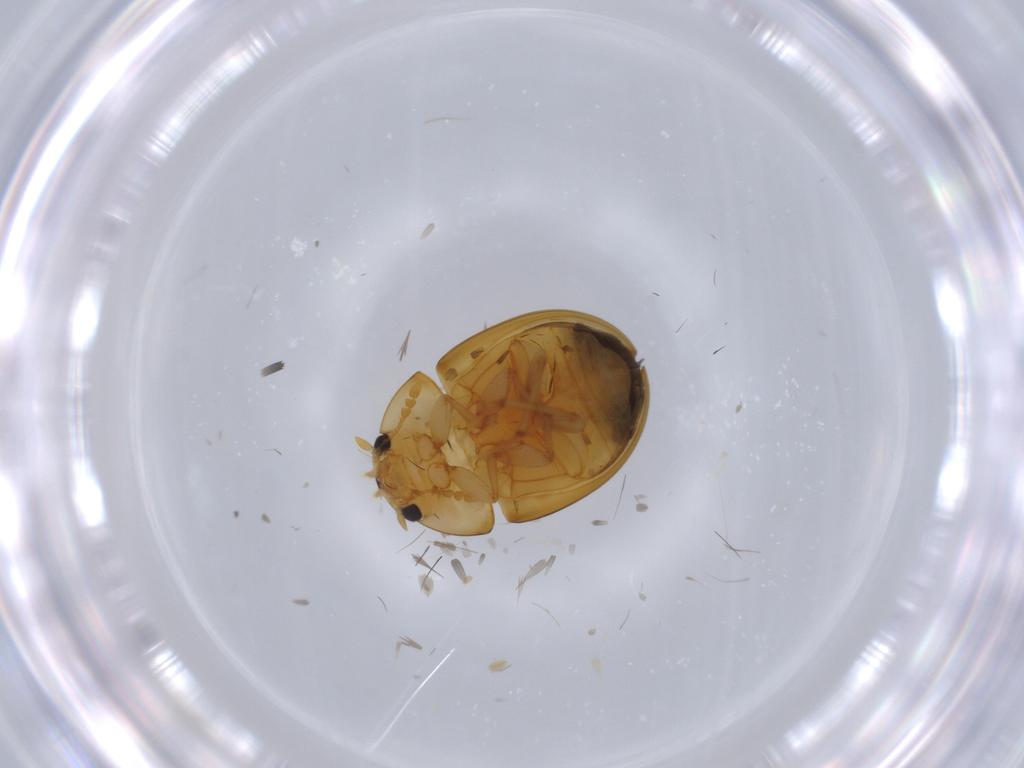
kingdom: Animalia
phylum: Arthropoda
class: Insecta
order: Coleoptera
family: Phalacridae
